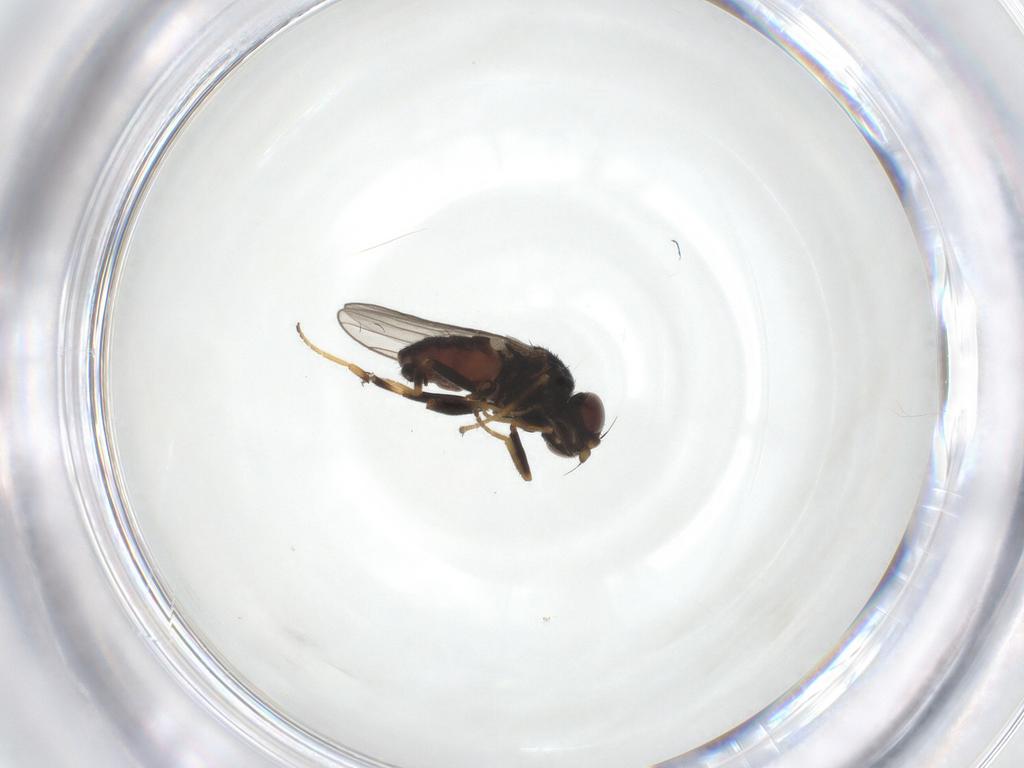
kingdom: Animalia
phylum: Arthropoda
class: Insecta
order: Diptera
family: Chloropidae
